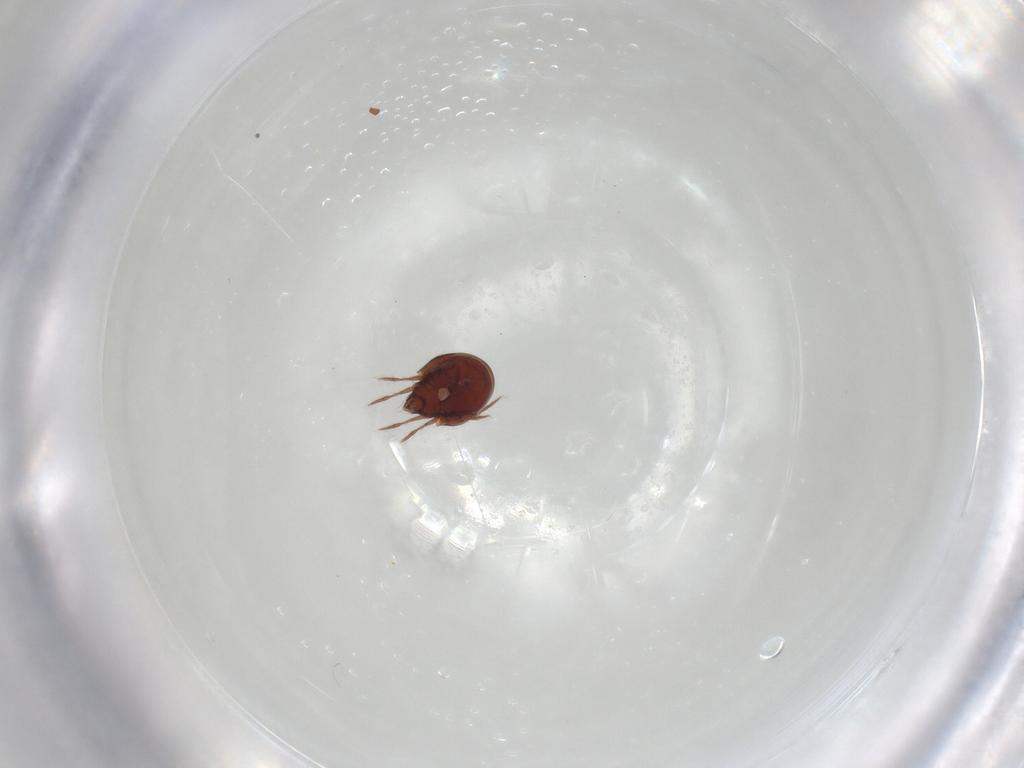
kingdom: Animalia
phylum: Arthropoda
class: Arachnida
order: Sarcoptiformes
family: Ceratozetidae
